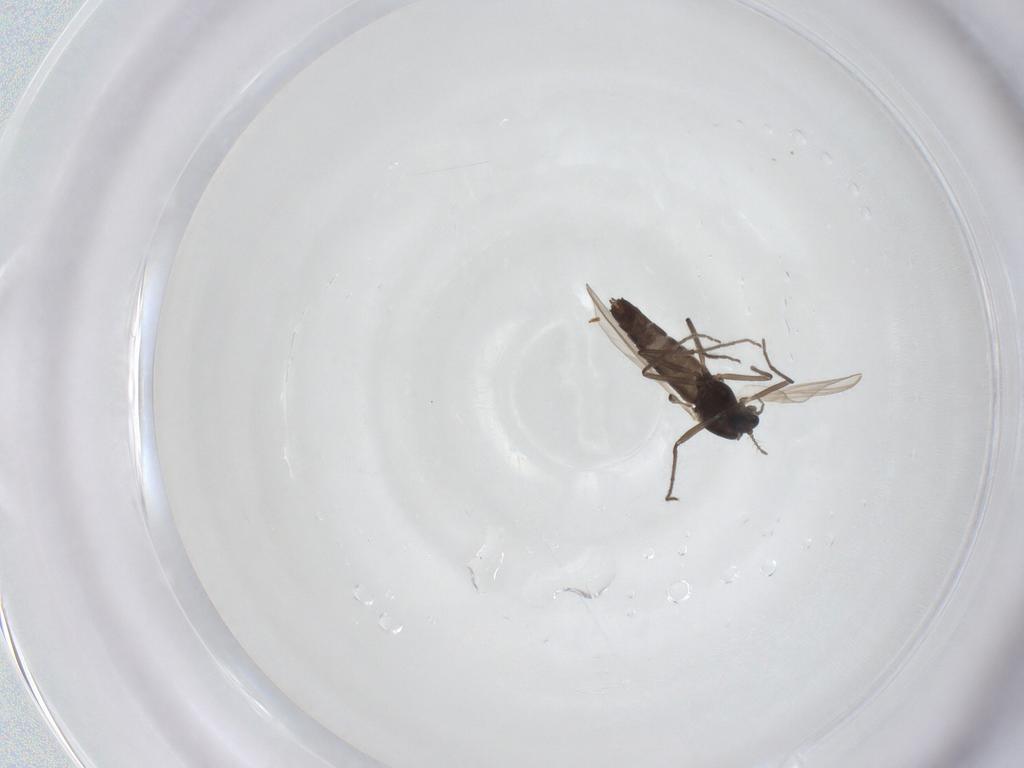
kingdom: Animalia
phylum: Arthropoda
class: Insecta
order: Diptera
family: Chironomidae
